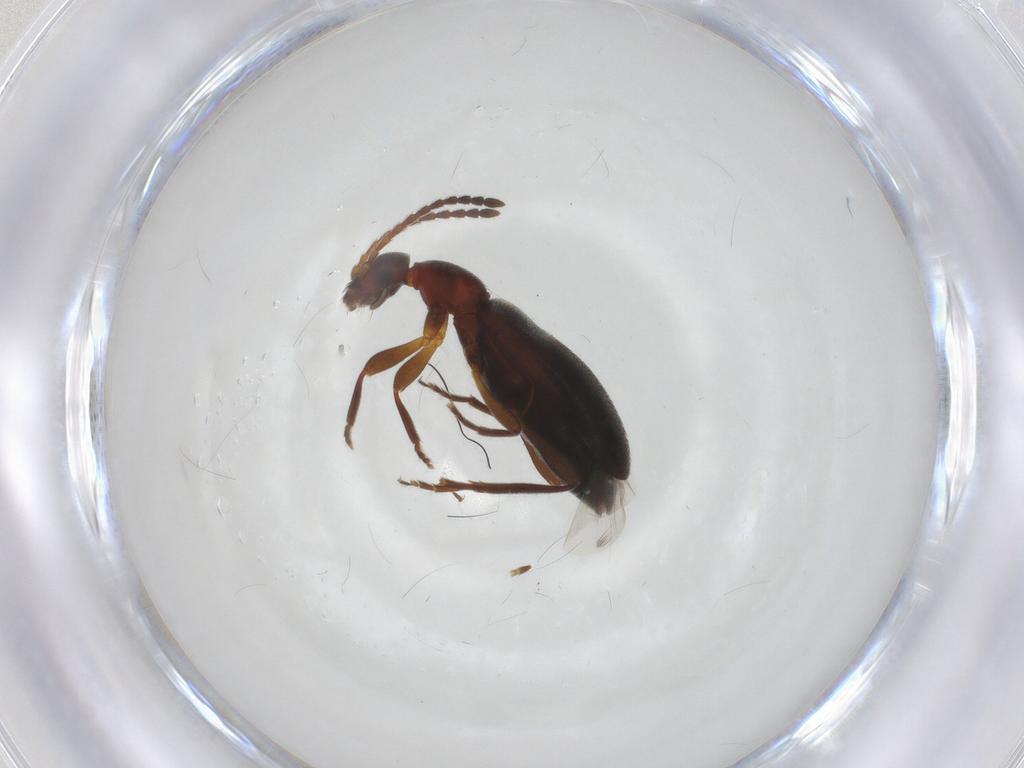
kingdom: Animalia
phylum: Arthropoda
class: Insecta
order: Coleoptera
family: Anthicidae
